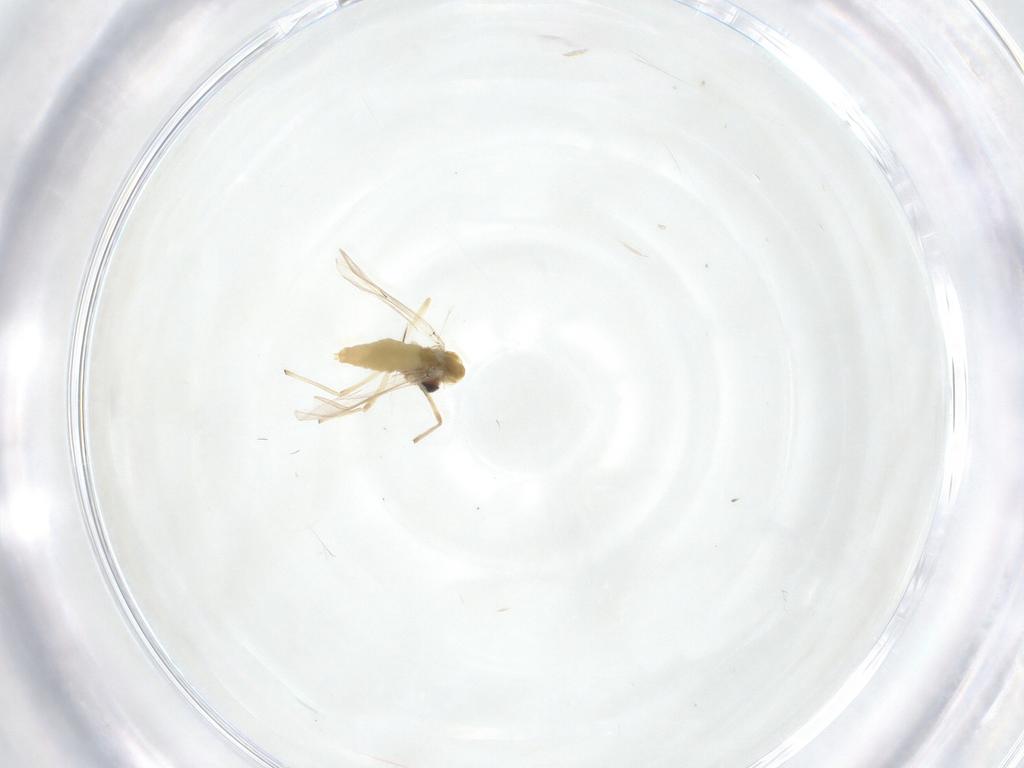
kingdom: Animalia
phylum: Arthropoda
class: Insecta
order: Diptera
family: Chironomidae
